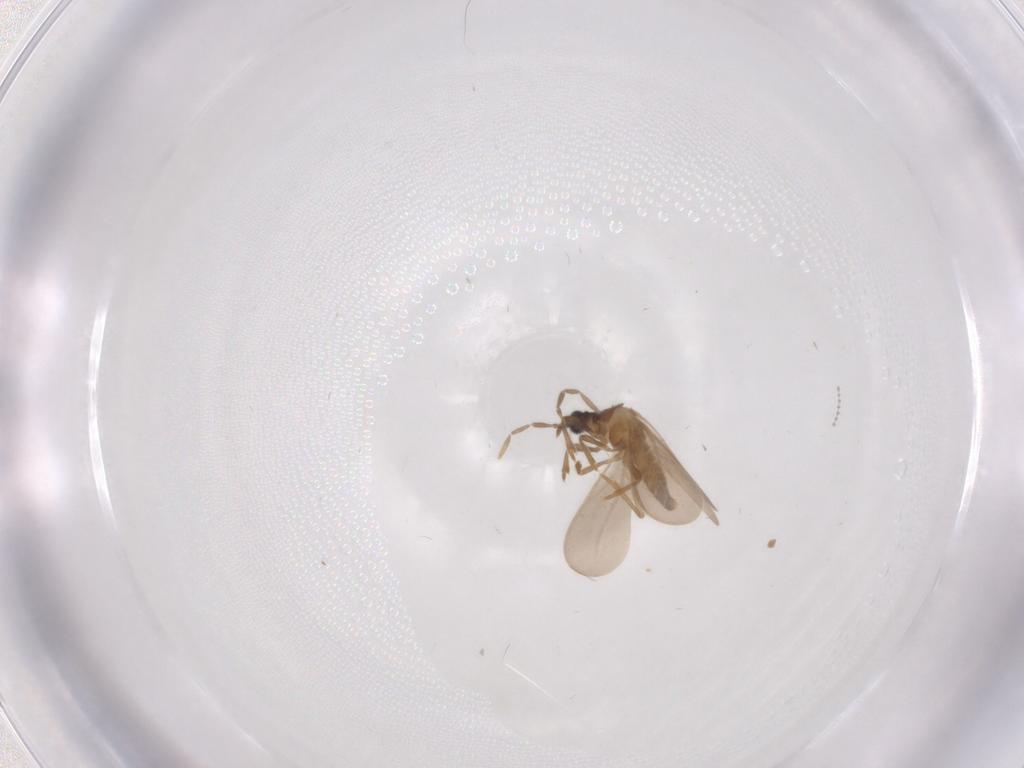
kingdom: Animalia
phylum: Arthropoda
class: Insecta
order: Diptera
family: Cecidomyiidae
